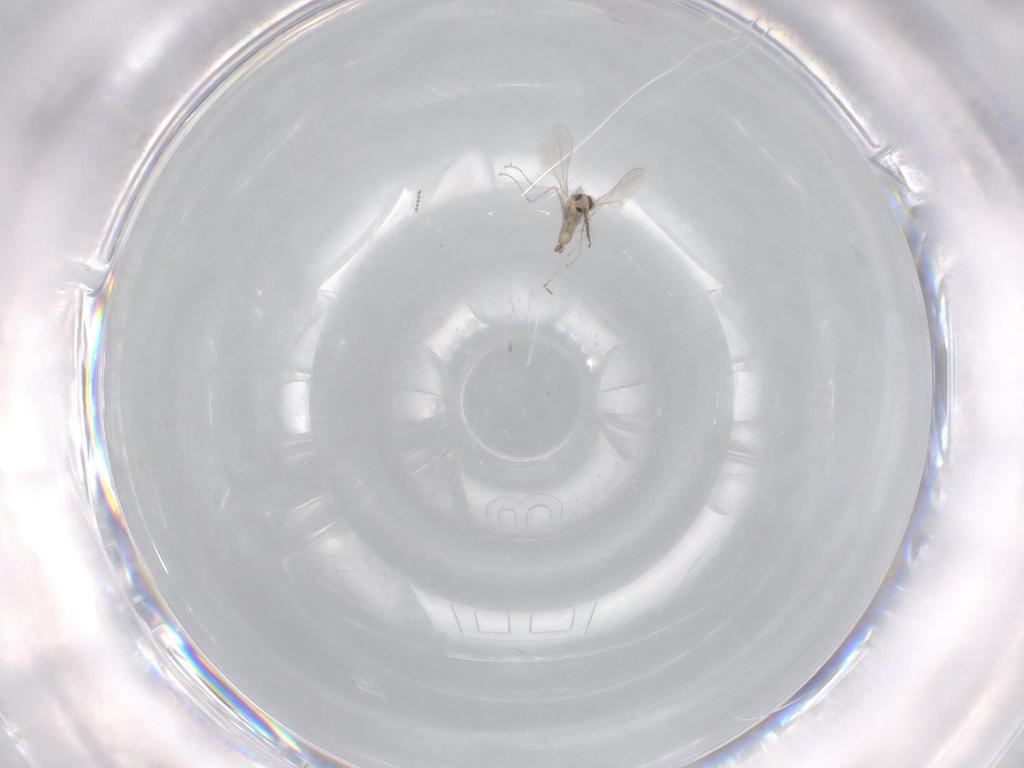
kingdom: Animalia
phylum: Arthropoda
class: Insecta
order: Diptera
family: Cecidomyiidae
